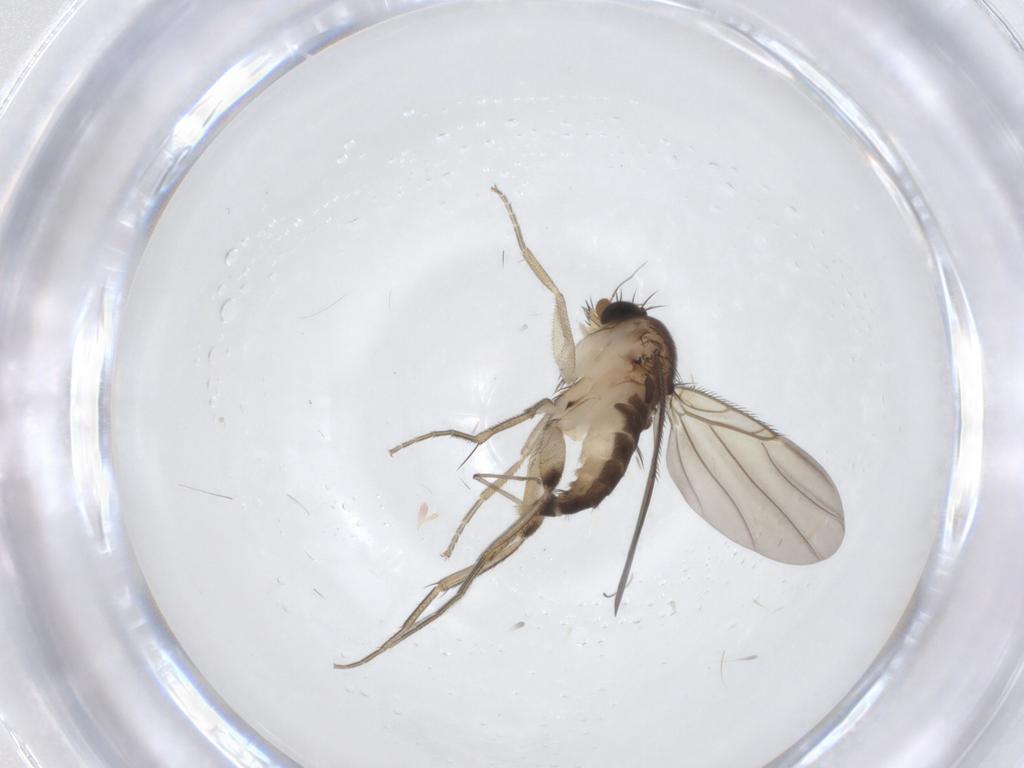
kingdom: Animalia
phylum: Arthropoda
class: Insecta
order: Diptera
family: Phoridae
